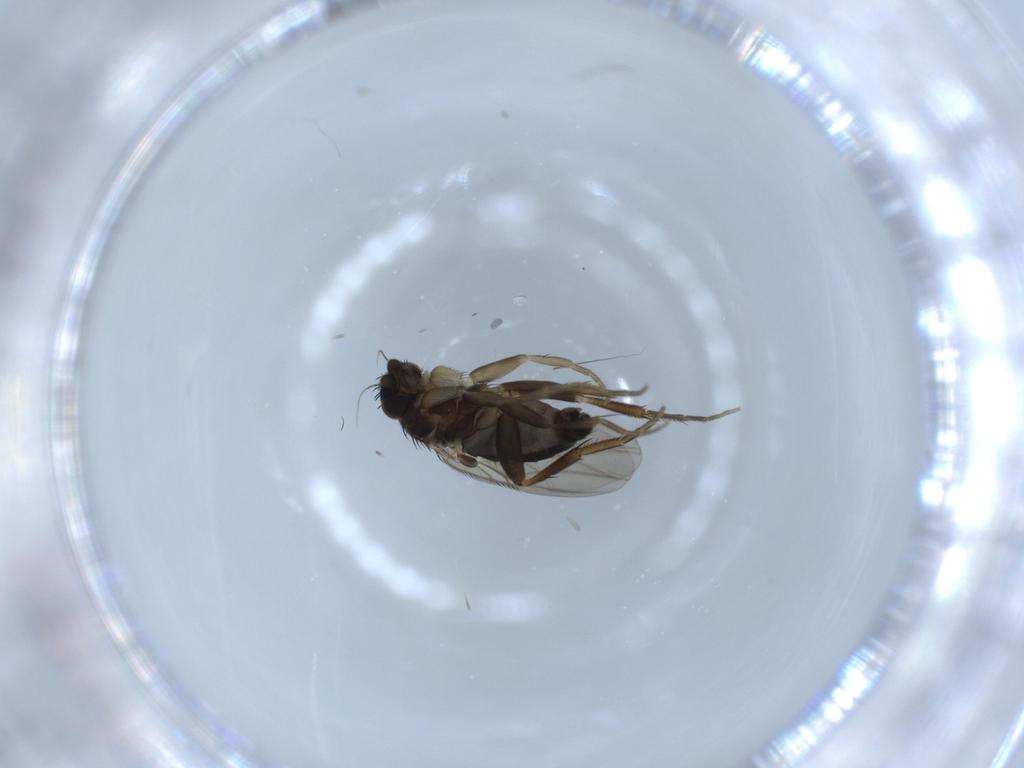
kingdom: Animalia
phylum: Arthropoda
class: Insecta
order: Diptera
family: Phoridae
